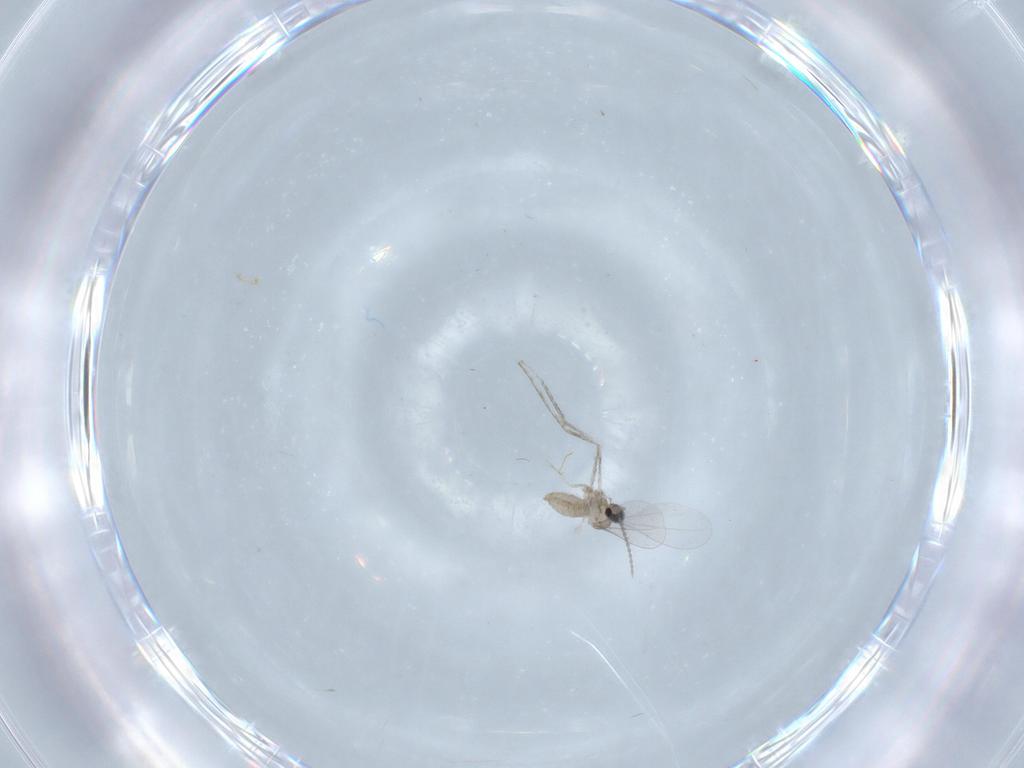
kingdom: Animalia
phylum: Arthropoda
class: Insecta
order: Diptera
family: Cecidomyiidae
